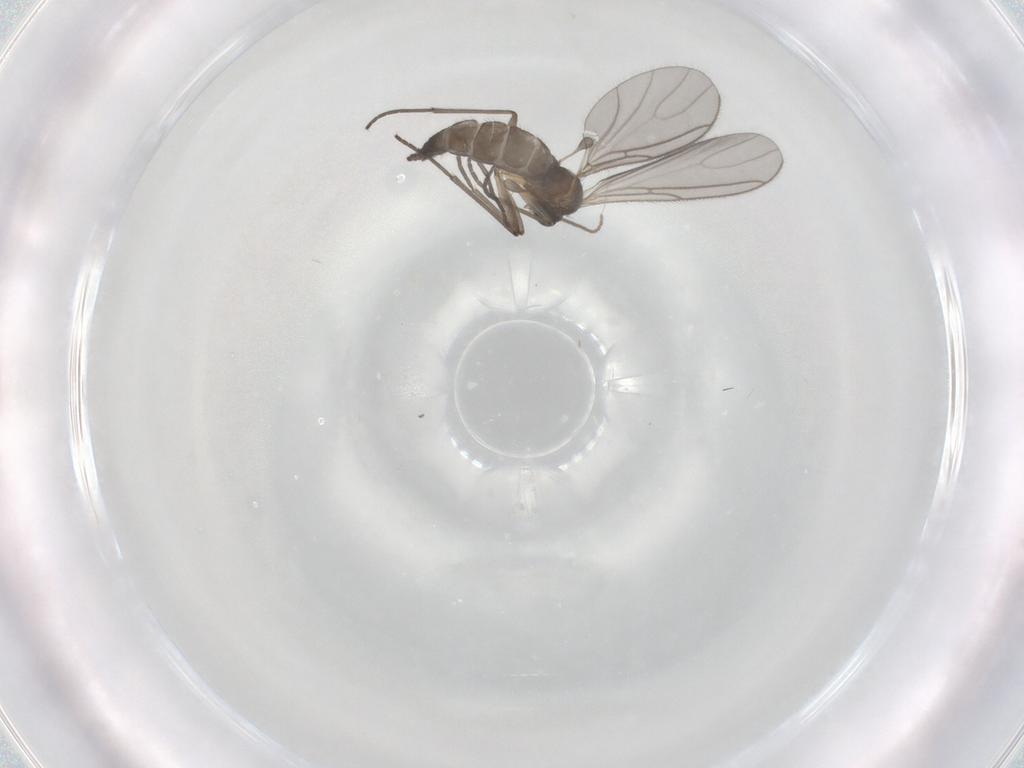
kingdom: Animalia
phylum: Arthropoda
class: Insecta
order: Diptera
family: Sciaridae
